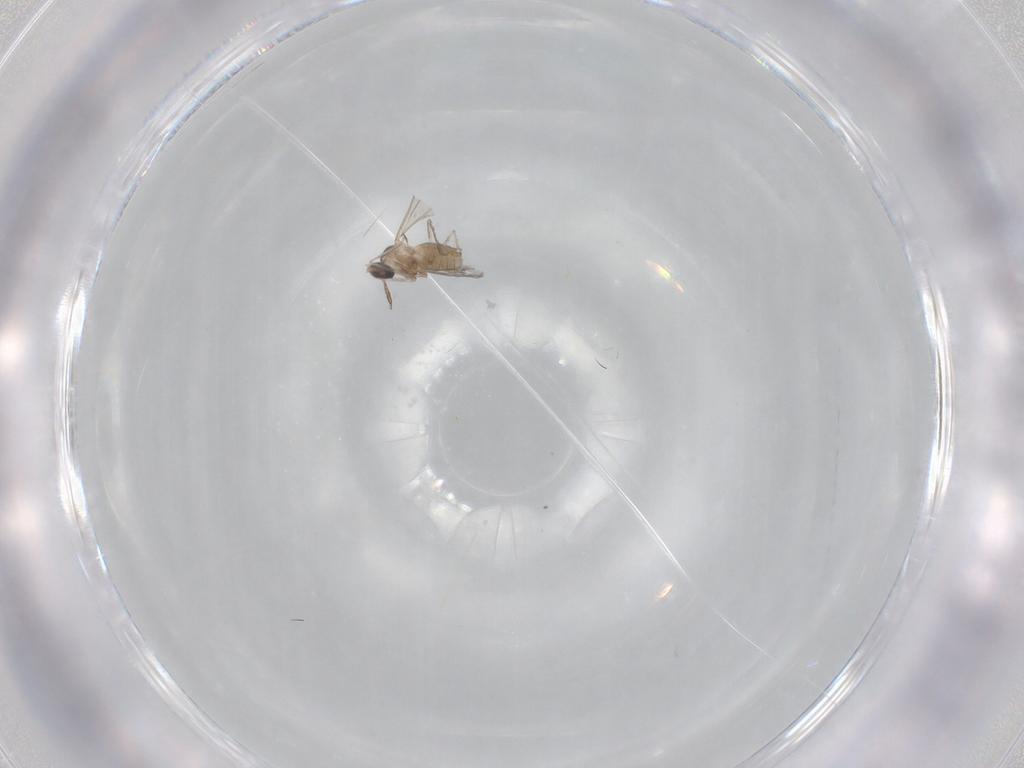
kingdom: Animalia
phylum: Arthropoda
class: Insecta
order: Diptera
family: Cecidomyiidae
